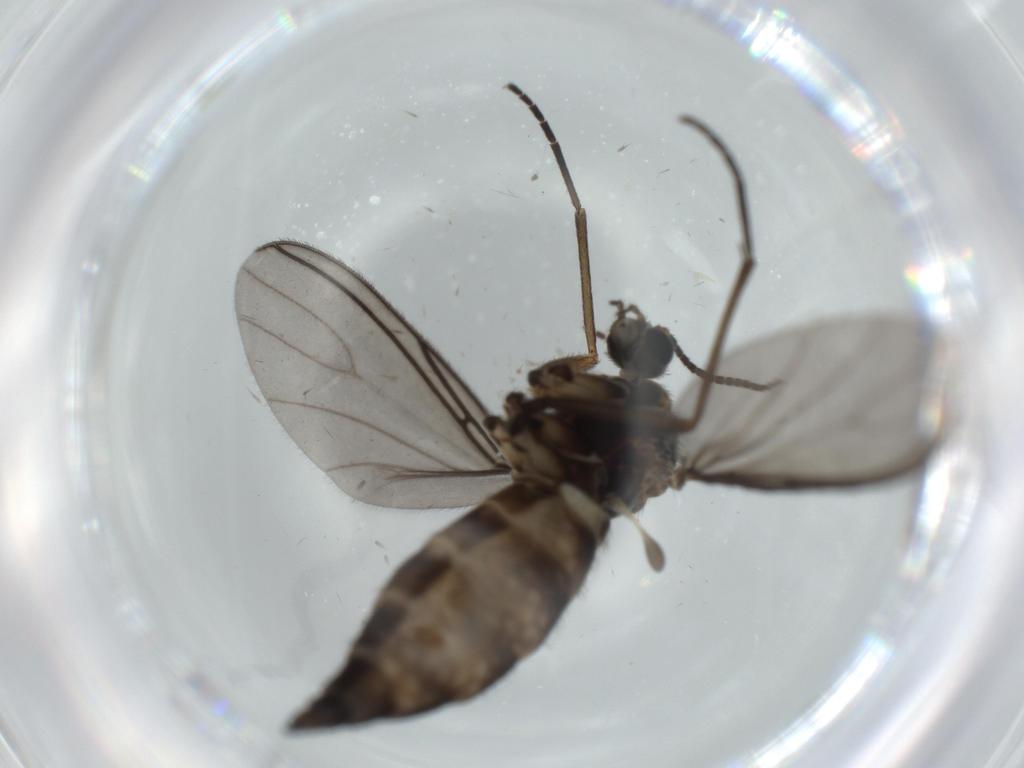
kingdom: Animalia
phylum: Arthropoda
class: Insecta
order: Diptera
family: Sciaridae
